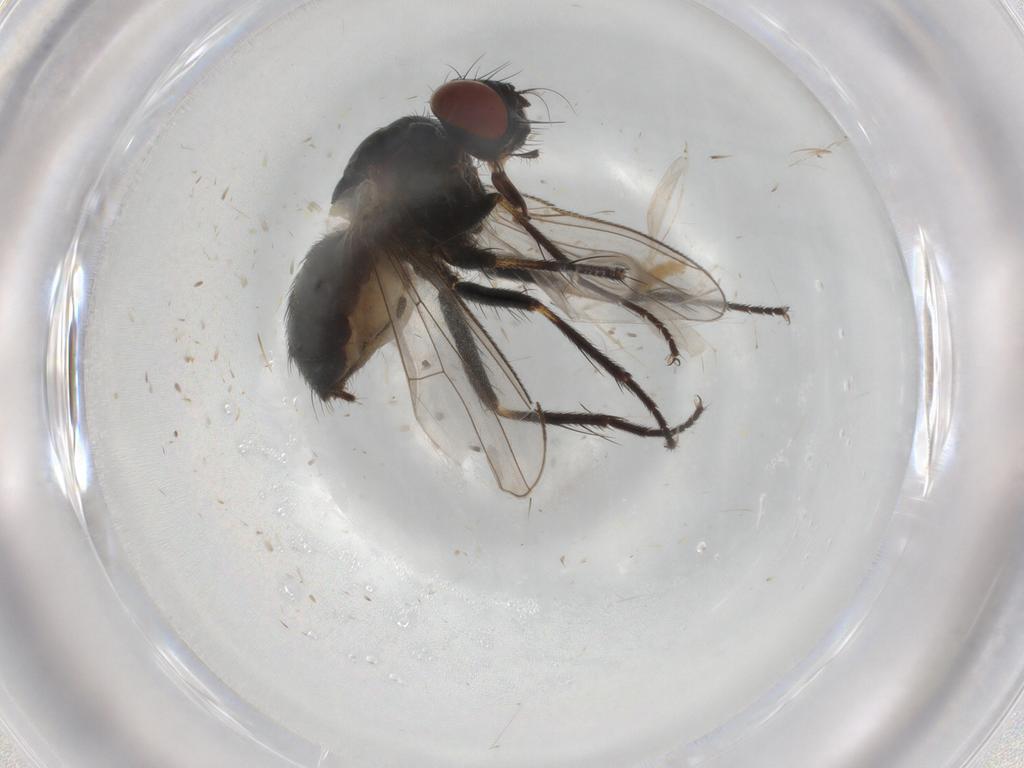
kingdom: Animalia
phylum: Arthropoda
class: Insecta
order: Diptera
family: Muscidae
